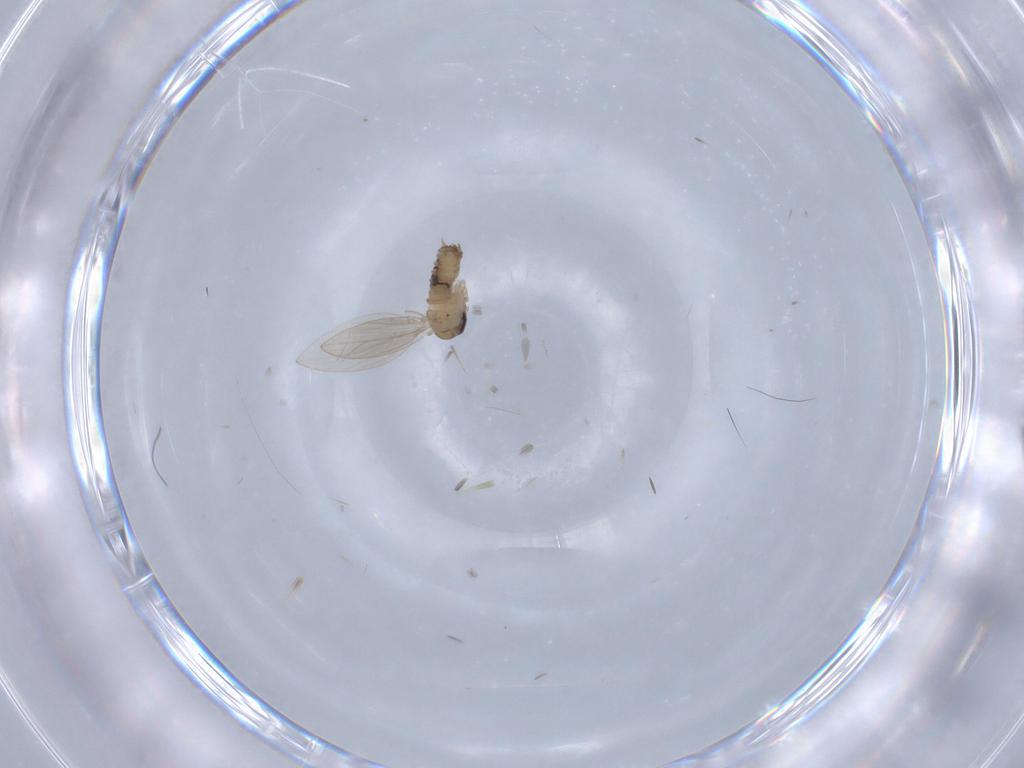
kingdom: Animalia
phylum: Arthropoda
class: Insecta
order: Diptera
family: Psychodidae
